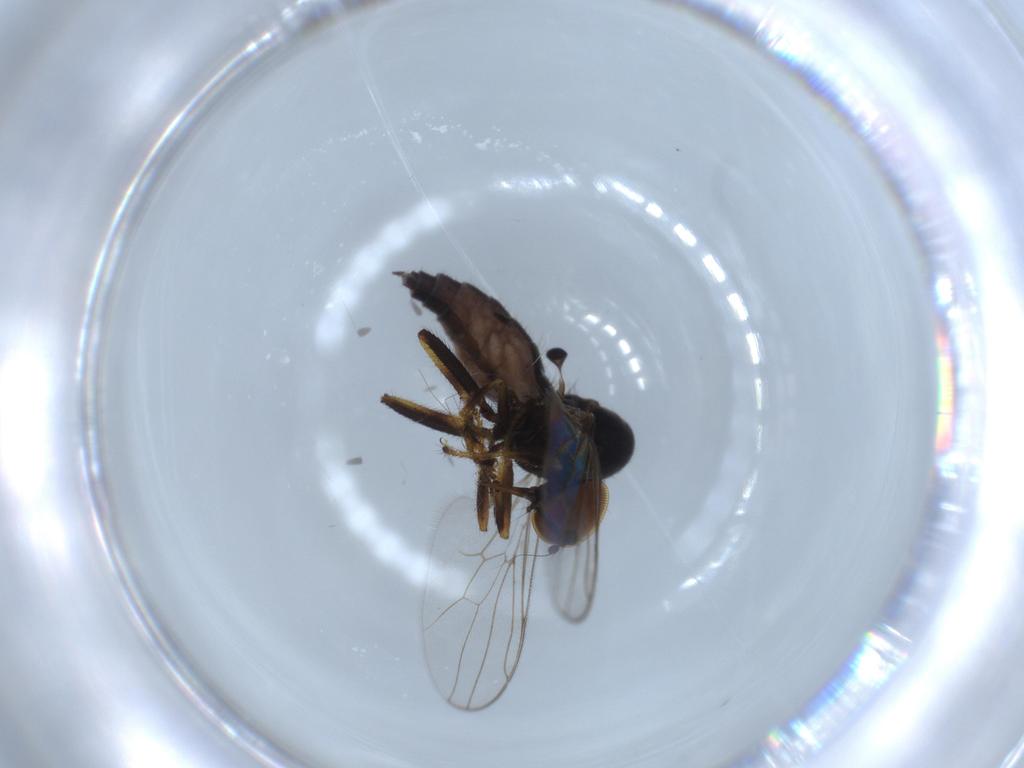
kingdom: Animalia
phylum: Arthropoda
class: Insecta
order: Diptera
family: Hybotidae
